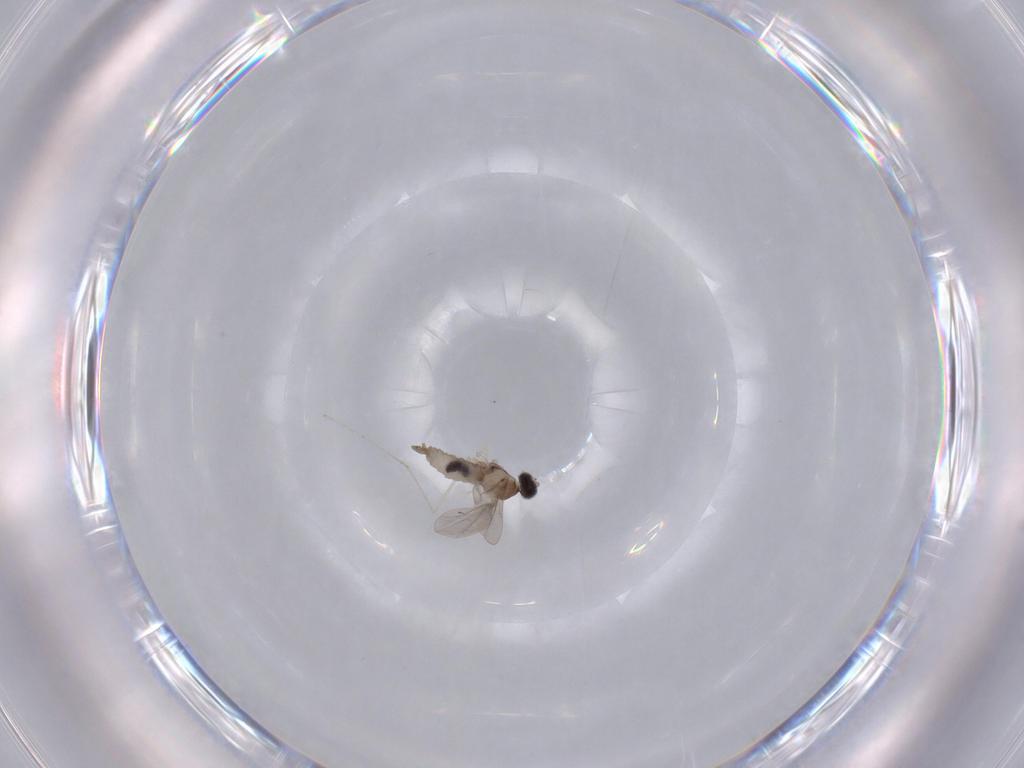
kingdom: Animalia
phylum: Arthropoda
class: Insecta
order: Diptera
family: Cecidomyiidae
